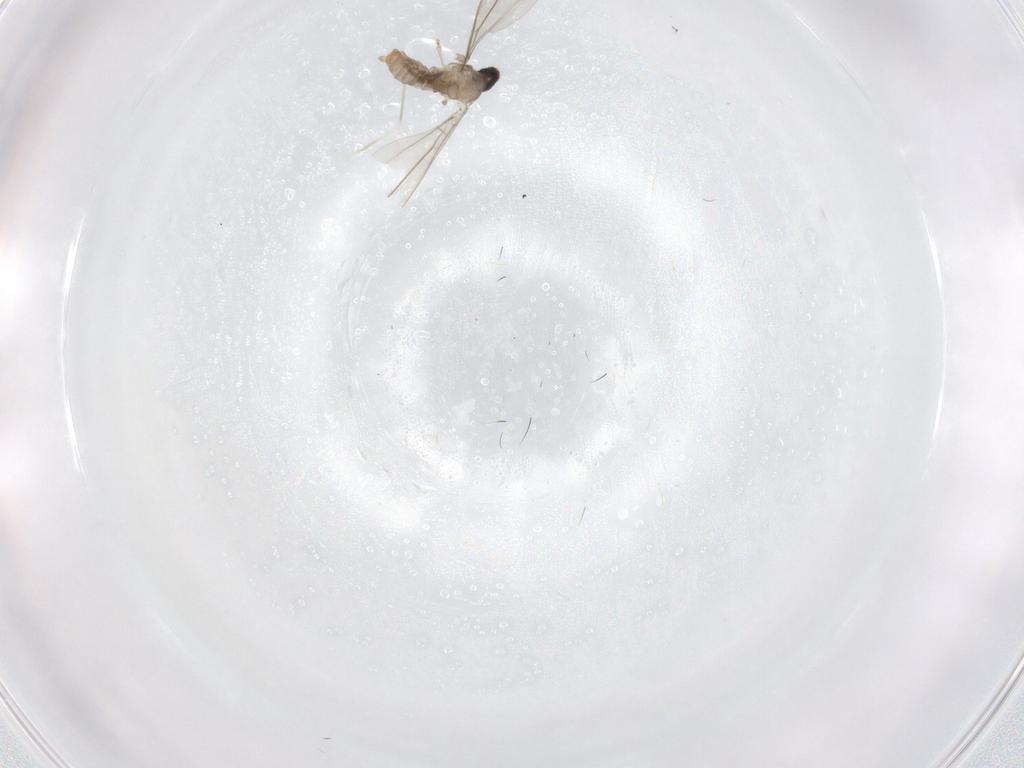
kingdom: Animalia
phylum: Arthropoda
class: Insecta
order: Diptera
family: Cecidomyiidae
